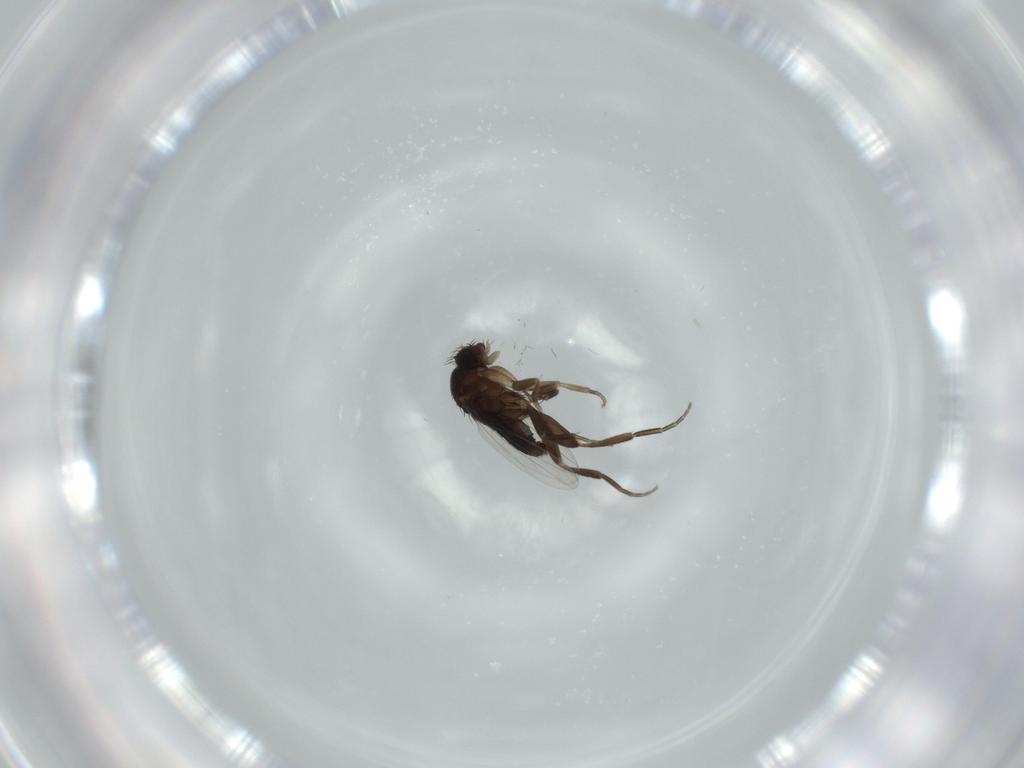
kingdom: Animalia
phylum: Arthropoda
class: Insecta
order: Diptera
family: Phoridae
